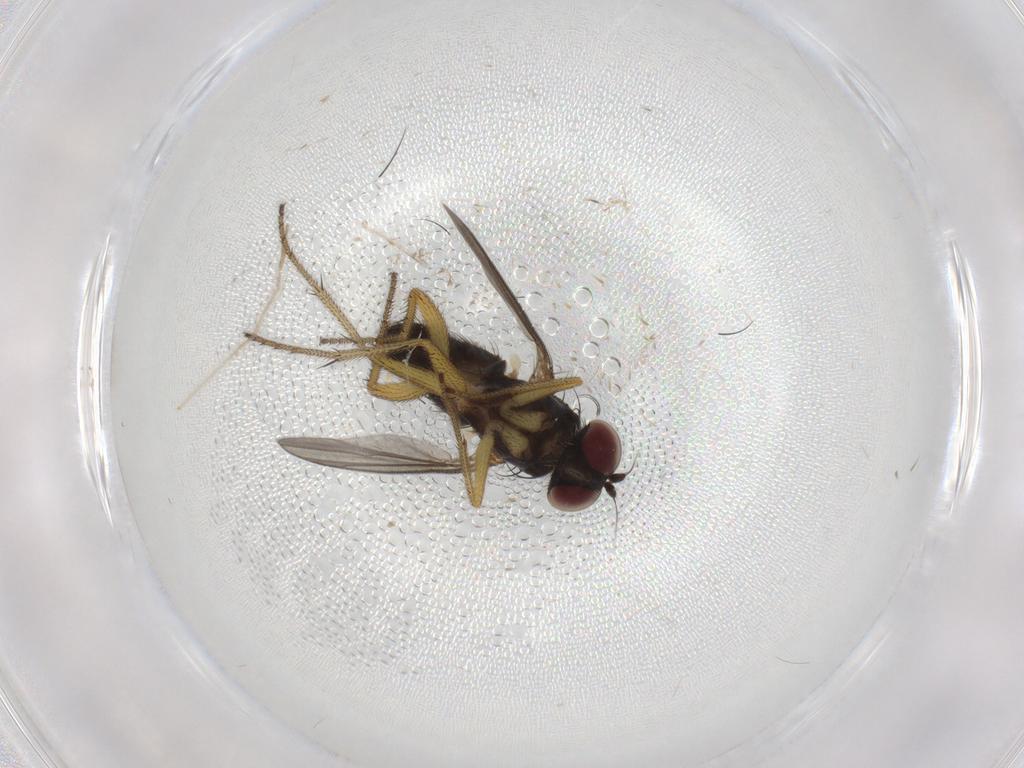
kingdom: Animalia
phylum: Arthropoda
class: Insecta
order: Diptera
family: Dolichopodidae
